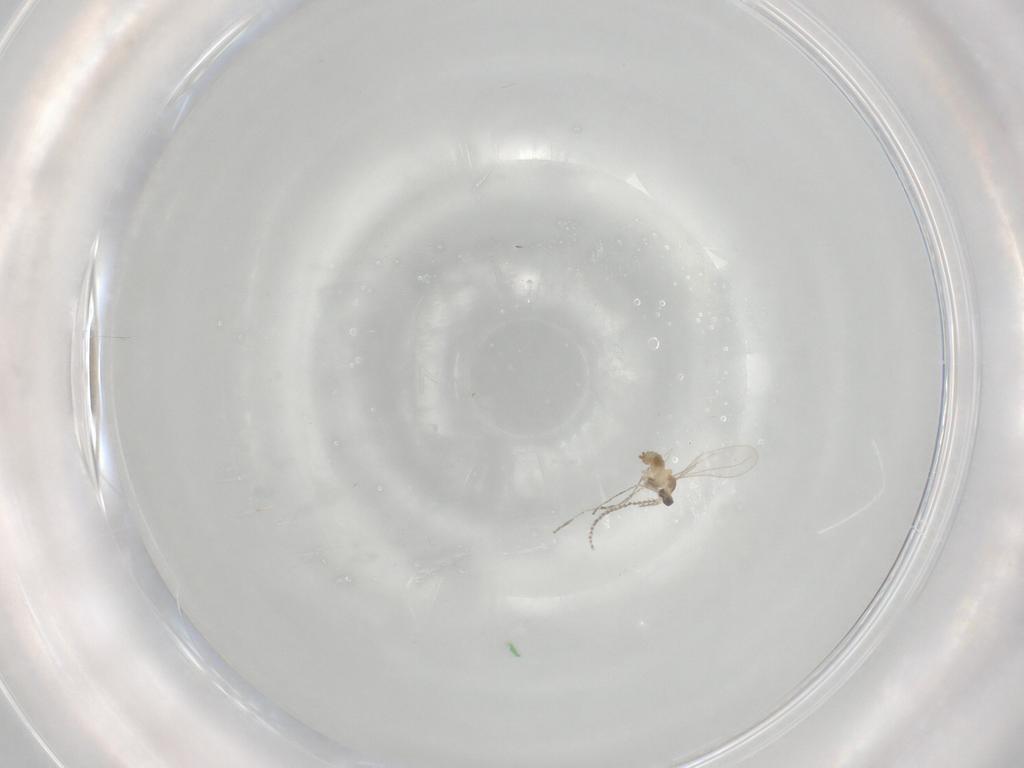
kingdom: Animalia
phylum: Arthropoda
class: Insecta
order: Diptera
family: Cecidomyiidae
